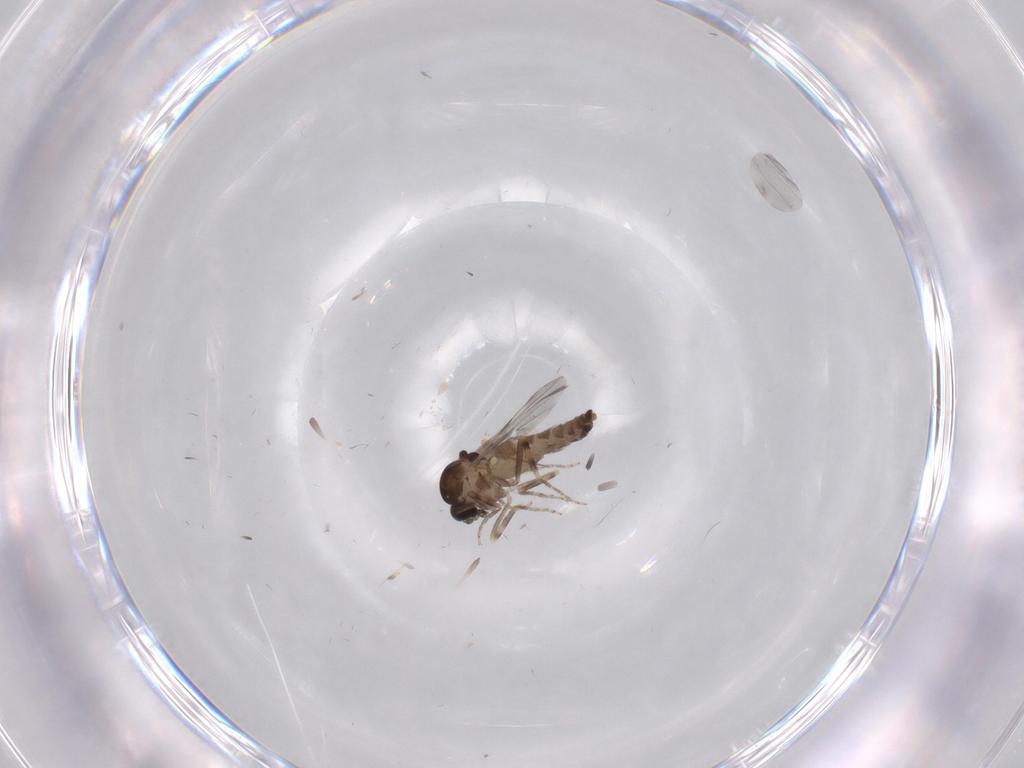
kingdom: Animalia
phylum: Arthropoda
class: Insecta
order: Diptera
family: Ceratopogonidae
